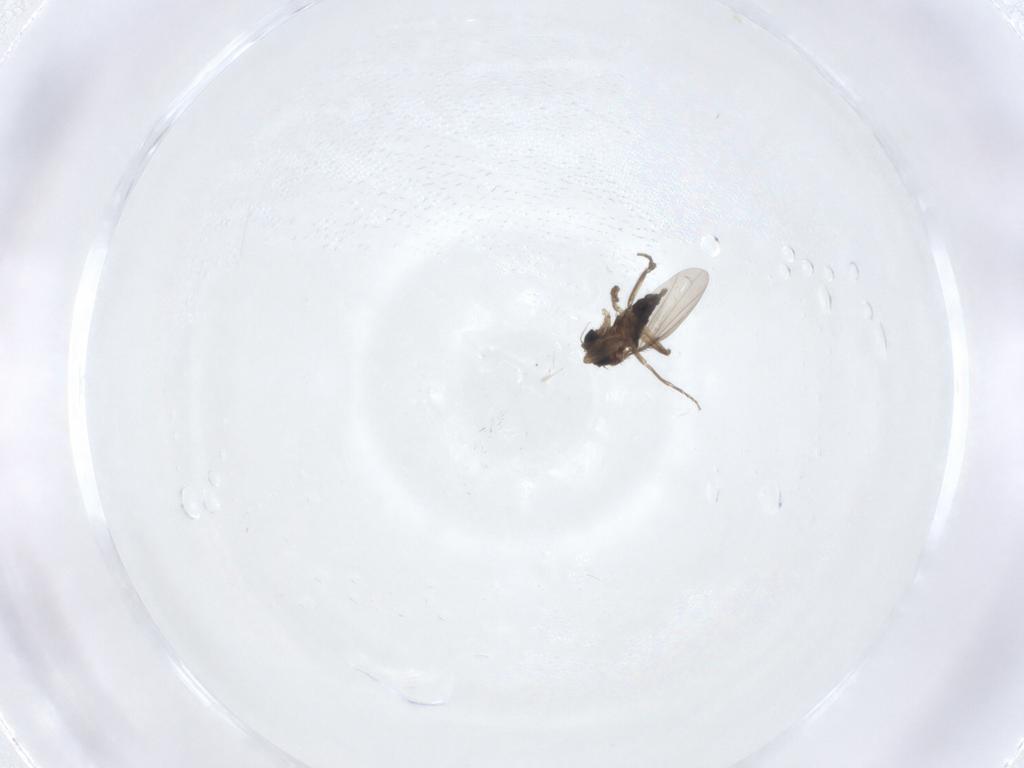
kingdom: Animalia
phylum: Arthropoda
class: Insecta
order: Diptera
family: Phoridae
